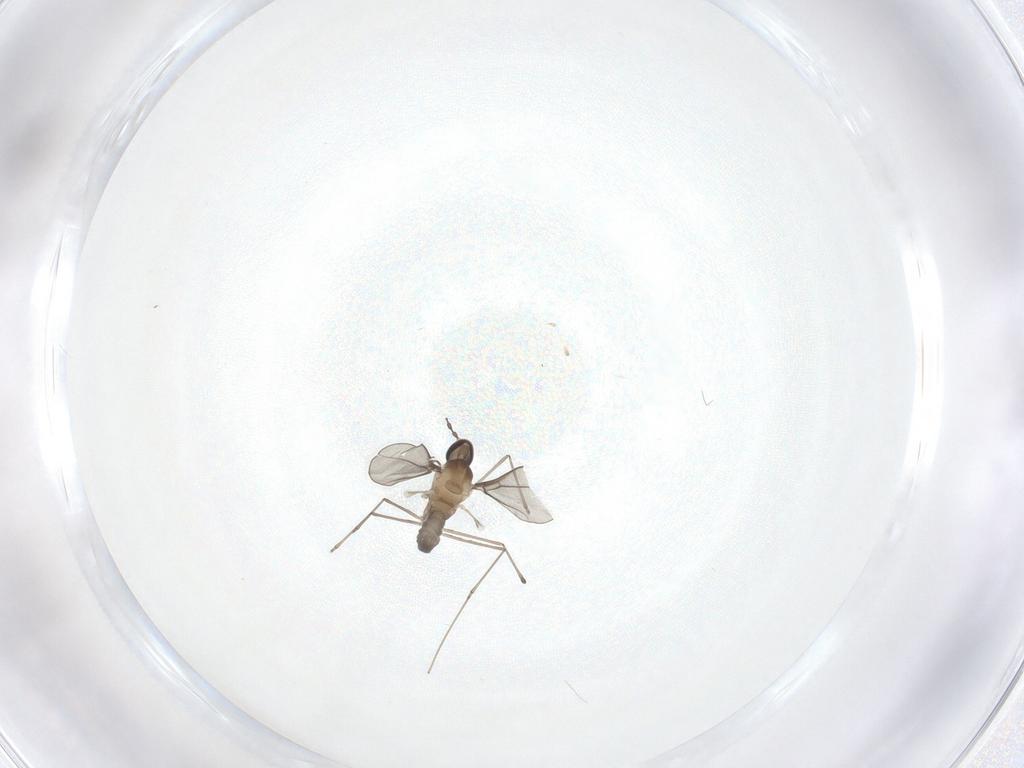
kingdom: Animalia
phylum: Arthropoda
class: Insecta
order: Diptera
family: Cecidomyiidae
